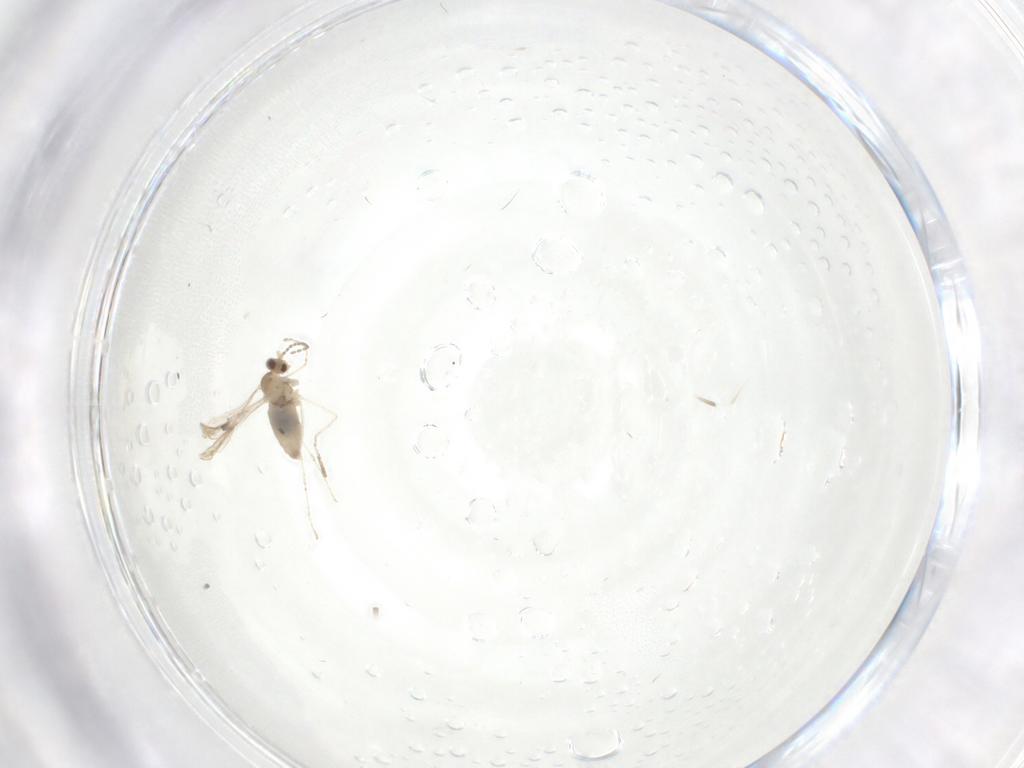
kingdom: Animalia
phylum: Arthropoda
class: Insecta
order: Diptera
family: Cecidomyiidae
